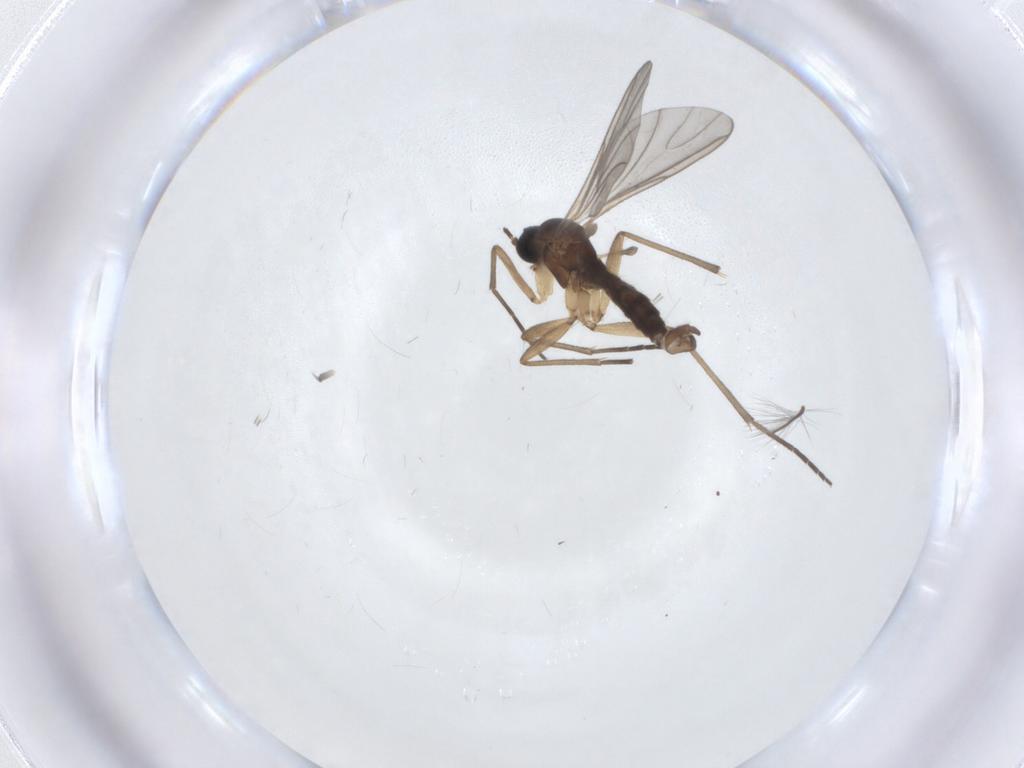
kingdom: Animalia
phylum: Arthropoda
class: Insecta
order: Diptera
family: Sciaridae
